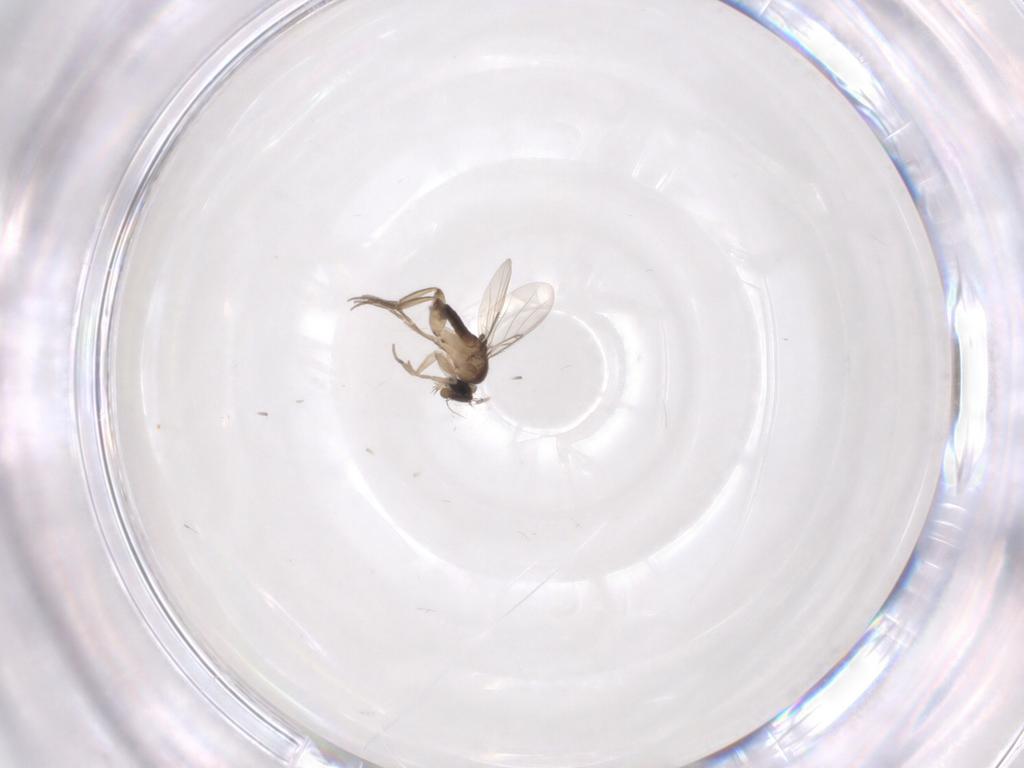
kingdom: Animalia
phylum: Arthropoda
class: Insecta
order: Diptera
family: Phoridae
